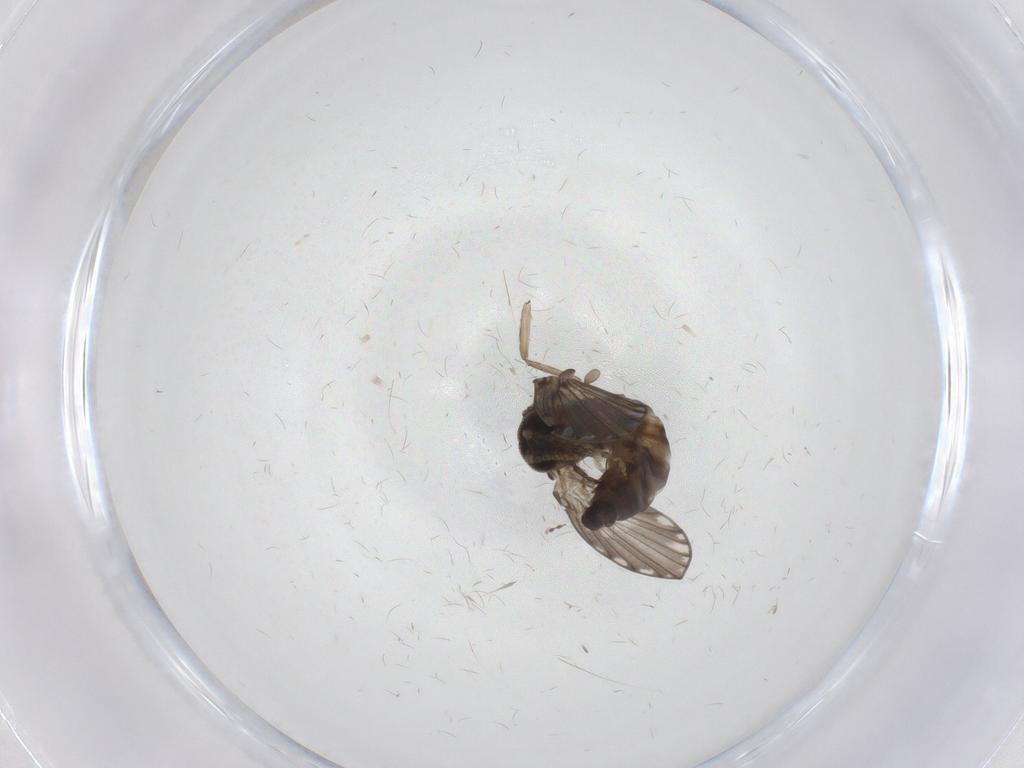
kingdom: Animalia
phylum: Arthropoda
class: Insecta
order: Diptera
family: Psychodidae
